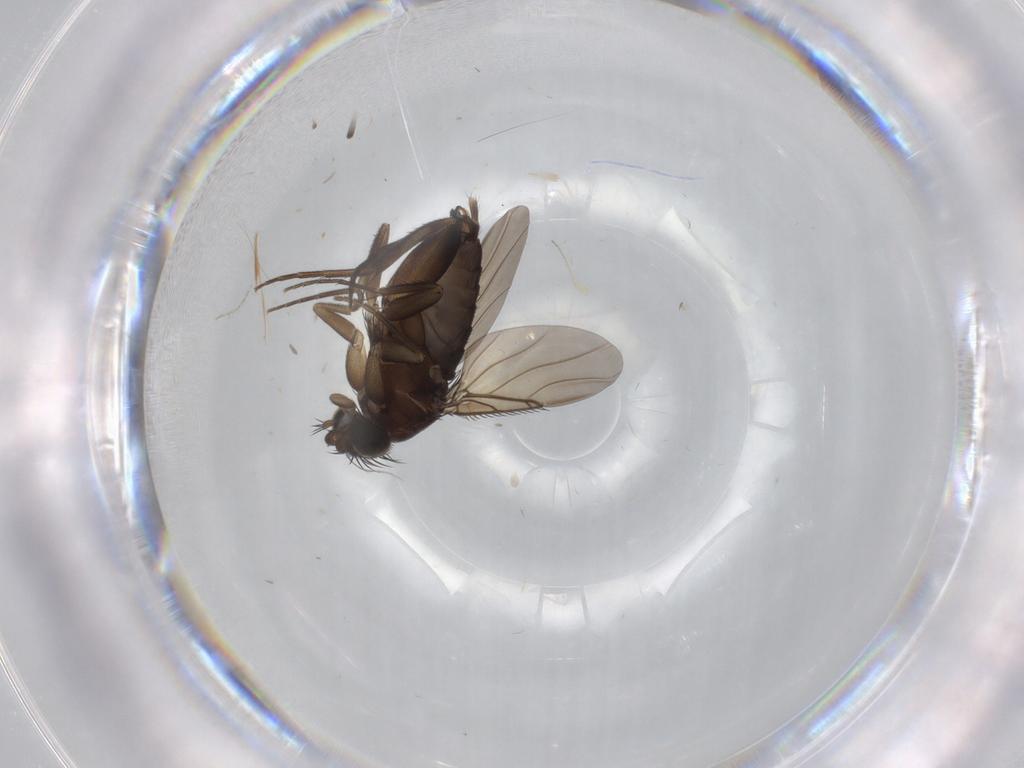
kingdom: Animalia
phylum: Arthropoda
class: Insecta
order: Diptera
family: Phoridae
